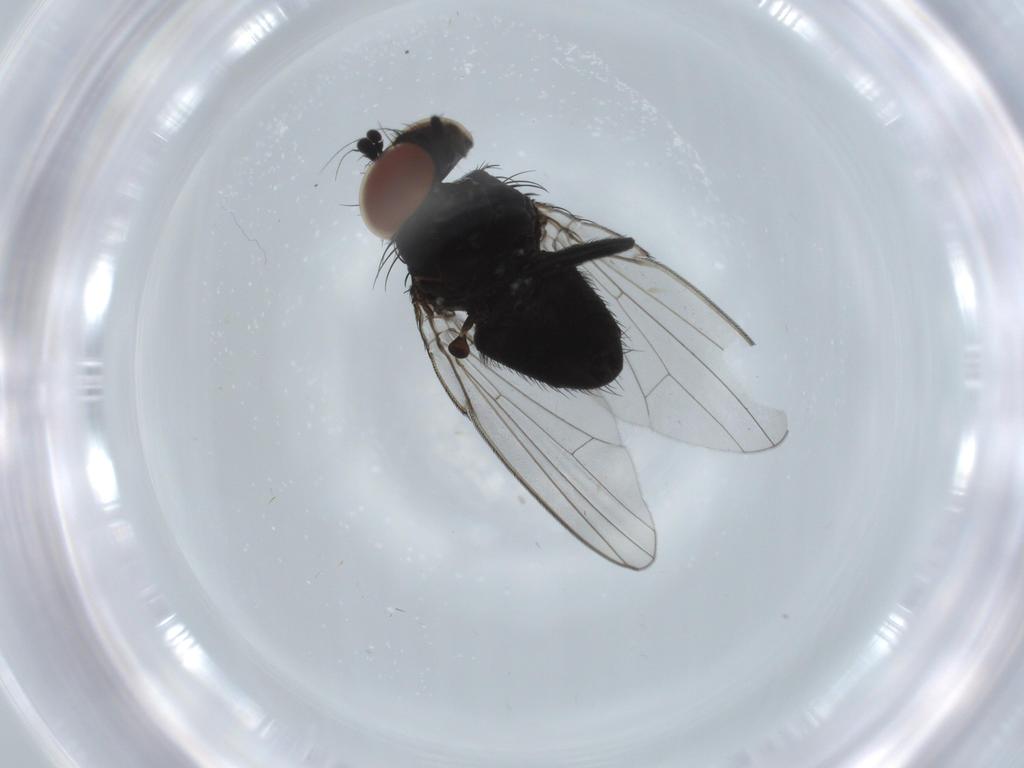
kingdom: Animalia
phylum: Arthropoda
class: Insecta
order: Diptera
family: Milichiidae
